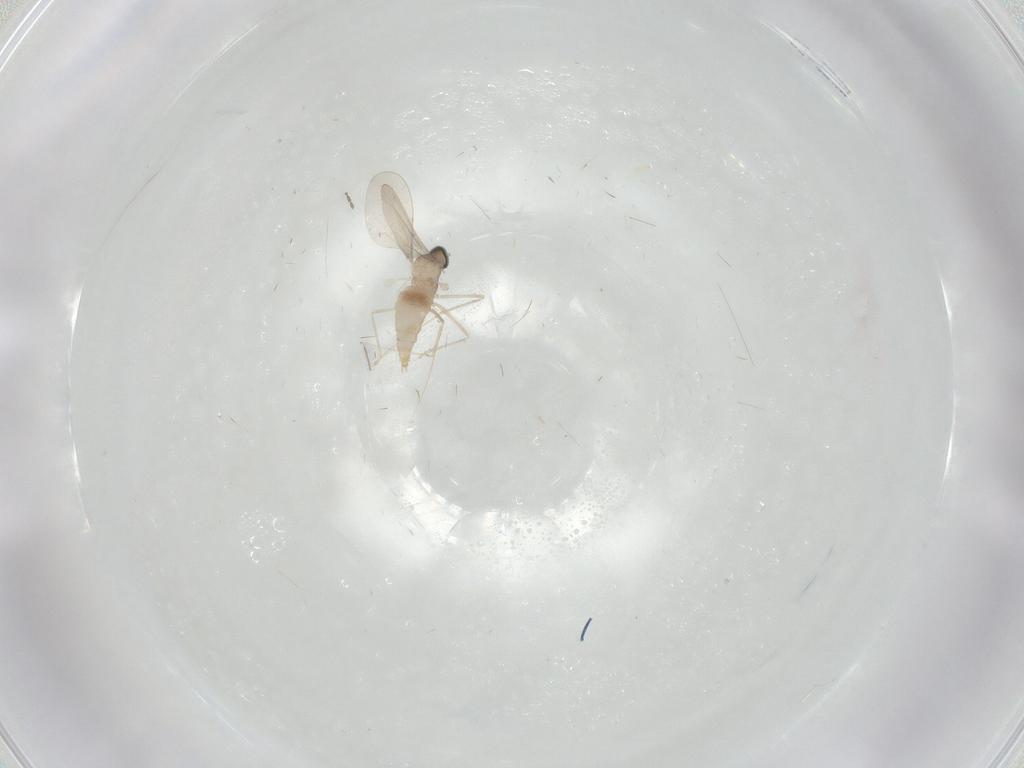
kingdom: Animalia
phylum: Arthropoda
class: Insecta
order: Diptera
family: Cecidomyiidae
